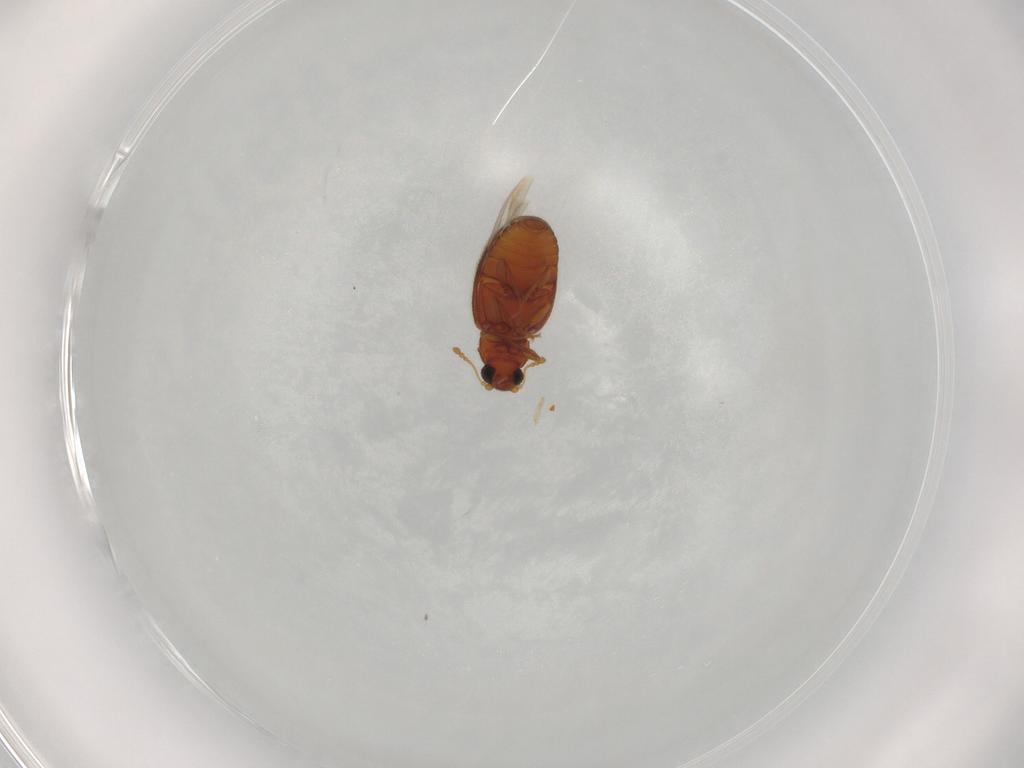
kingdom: Animalia
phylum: Arthropoda
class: Insecta
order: Coleoptera
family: Latridiidae
